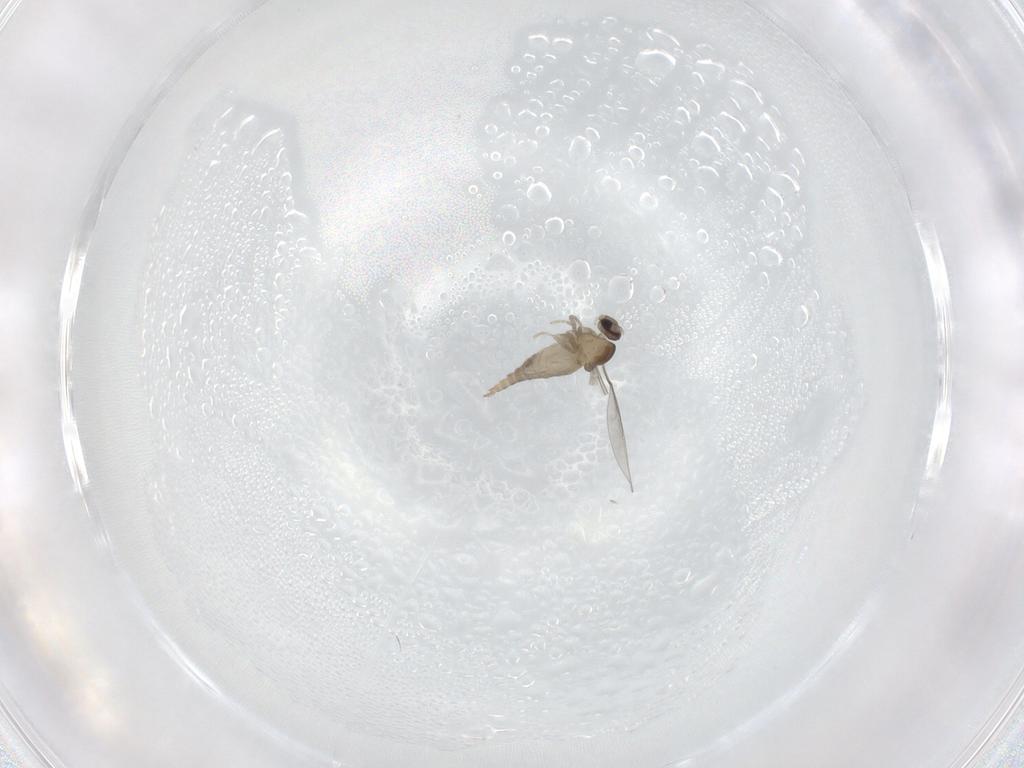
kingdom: Animalia
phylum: Arthropoda
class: Insecta
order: Diptera
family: Cecidomyiidae
